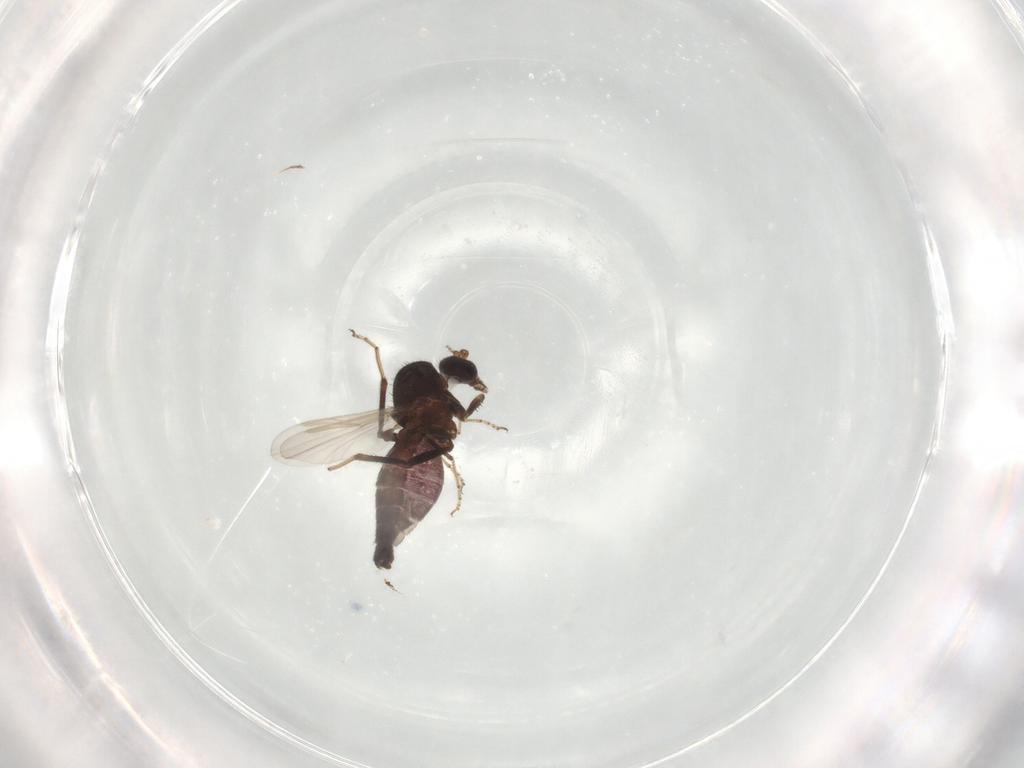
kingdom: Animalia
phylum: Arthropoda
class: Insecta
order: Diptera
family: Ceratopogonidae
